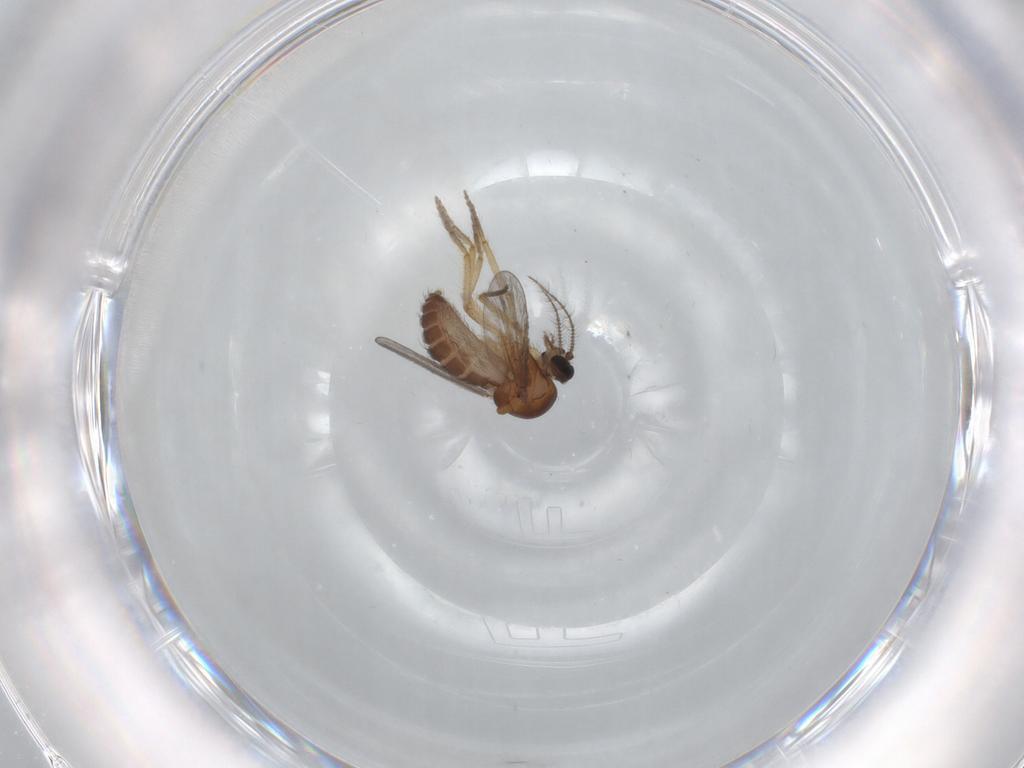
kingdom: Animalia
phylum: Arthropoda
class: Insecta
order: Diptera
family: Ceratopogonidae
